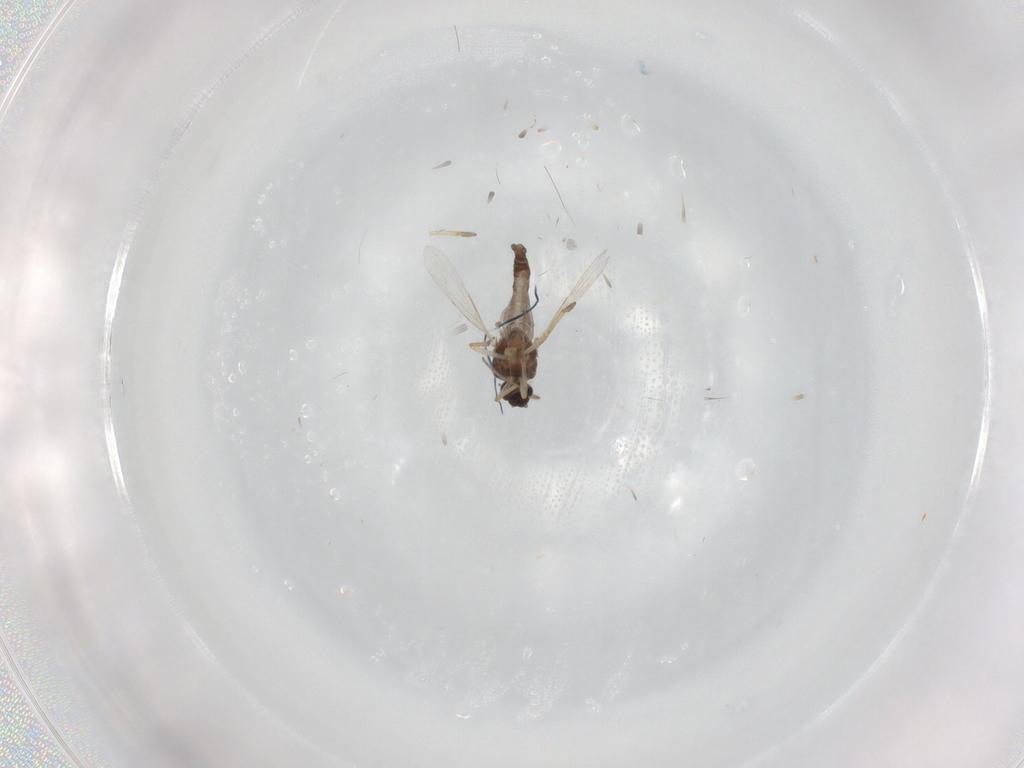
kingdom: Animalia
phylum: Arthropoda
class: Insecta
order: Diptera
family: Ceratopogonidae
